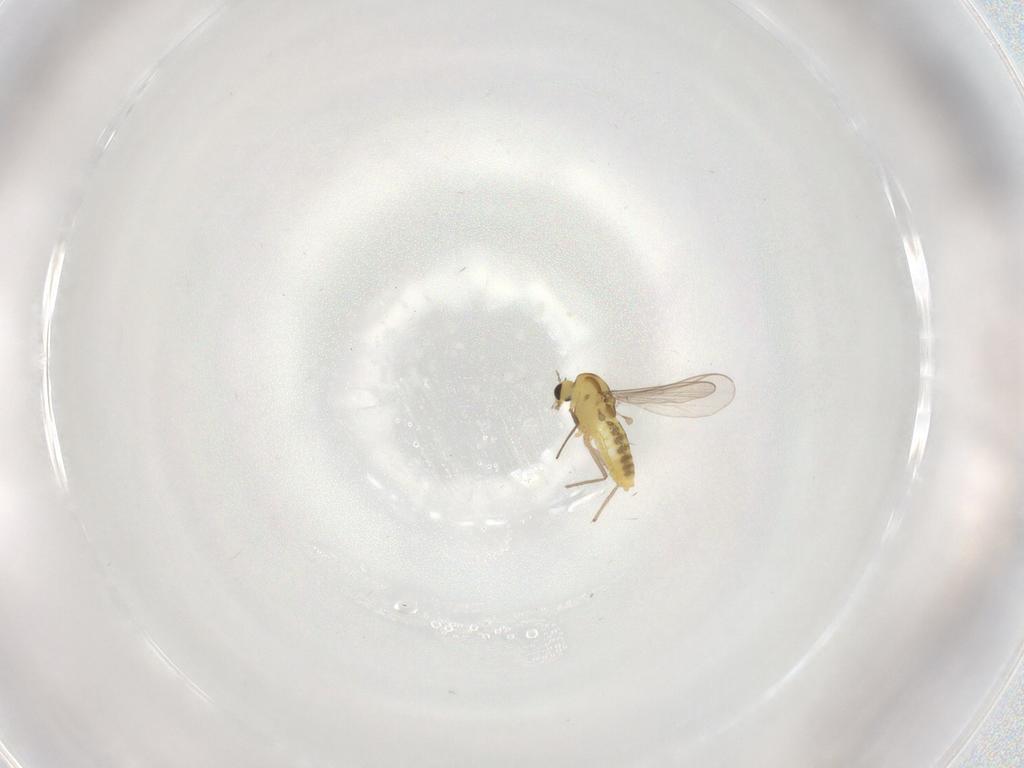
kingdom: Animalia
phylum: Arthropoda
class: Insecta
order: Diptera
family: Chironomidae
